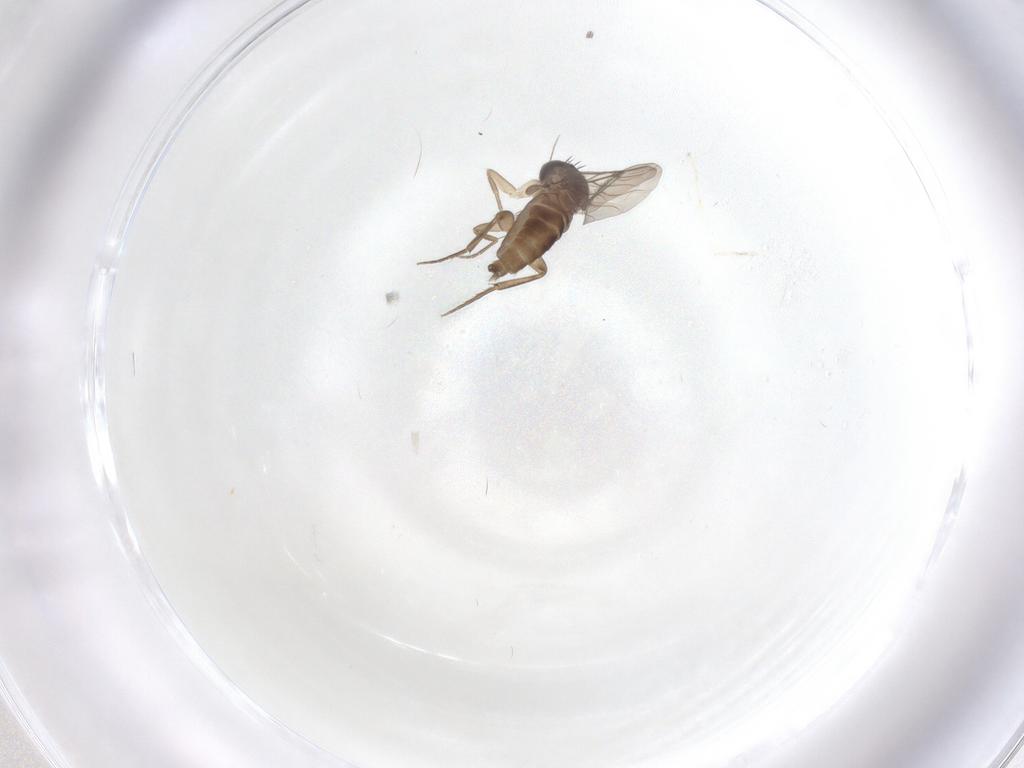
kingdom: Animalia
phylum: Arthropoda
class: Insecta
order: Diptera
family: Phoridae
